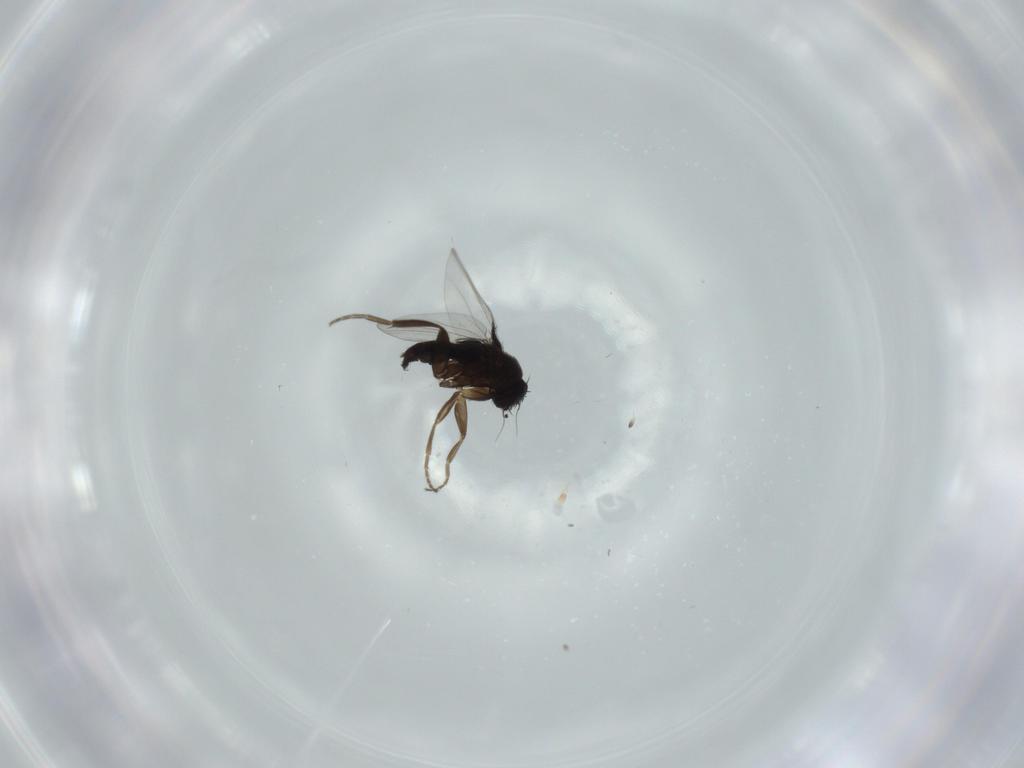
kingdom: Animalia
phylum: Arthropoda
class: Insecta
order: Diptera
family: Phoridae
